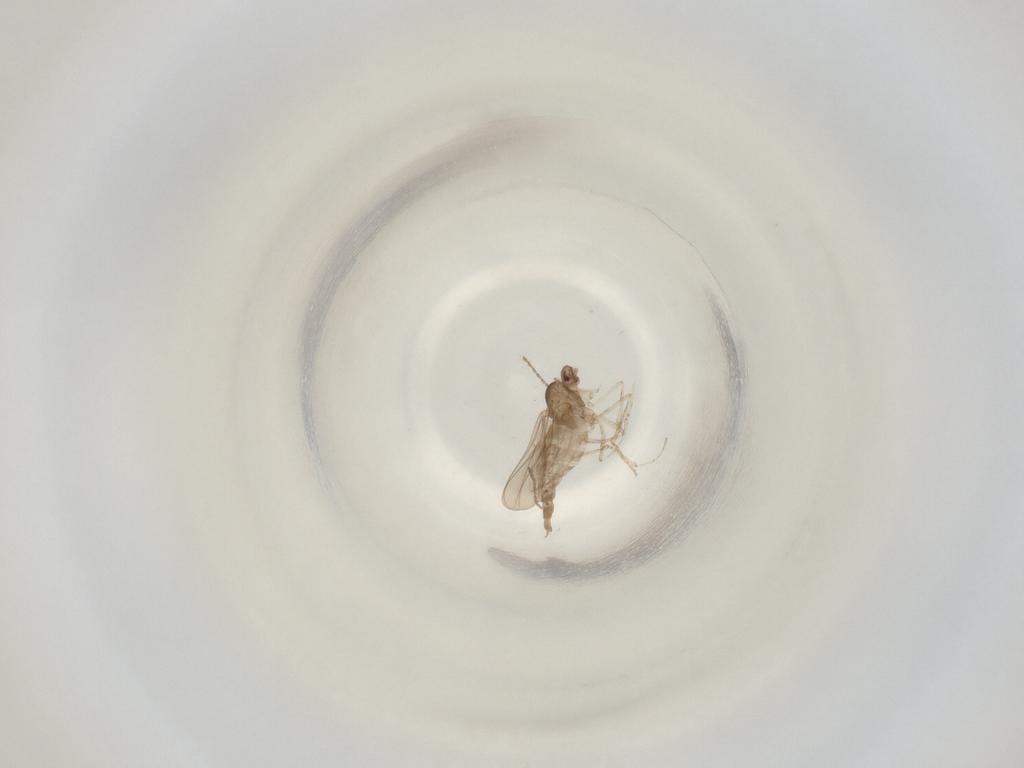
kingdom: Animalia
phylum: Arthropoda
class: Insecta
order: Diptera
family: Cecidomyiidae
